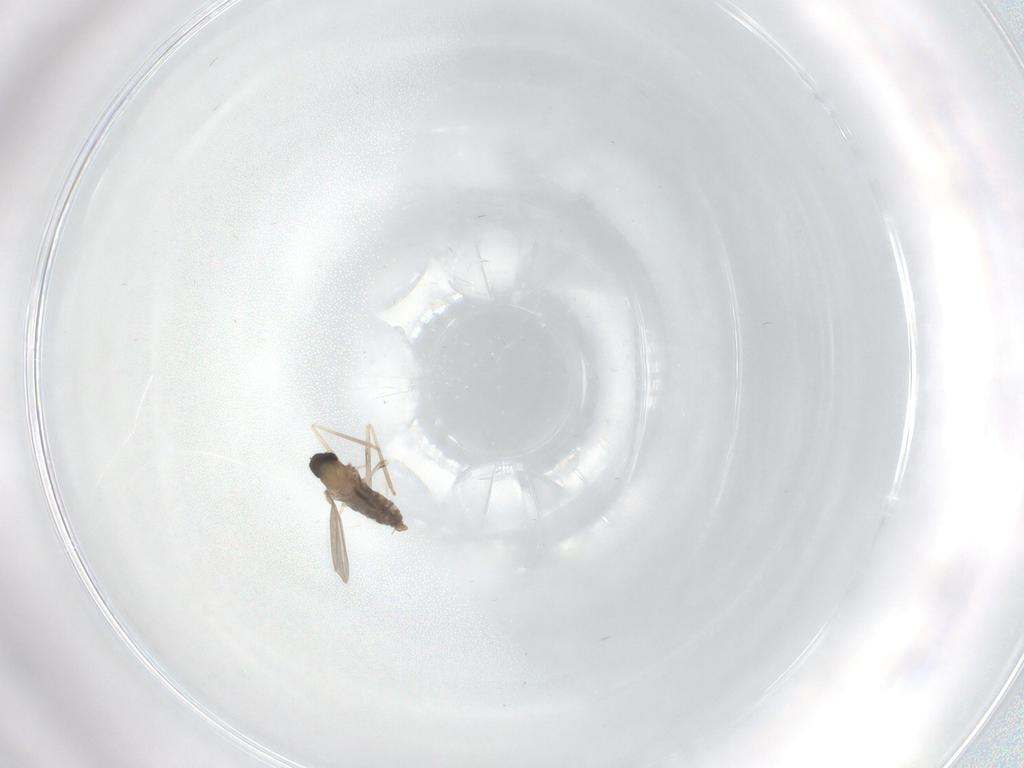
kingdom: Animalia
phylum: Arthropoda
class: Insecta
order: Diptera
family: Cecidomyiidae
